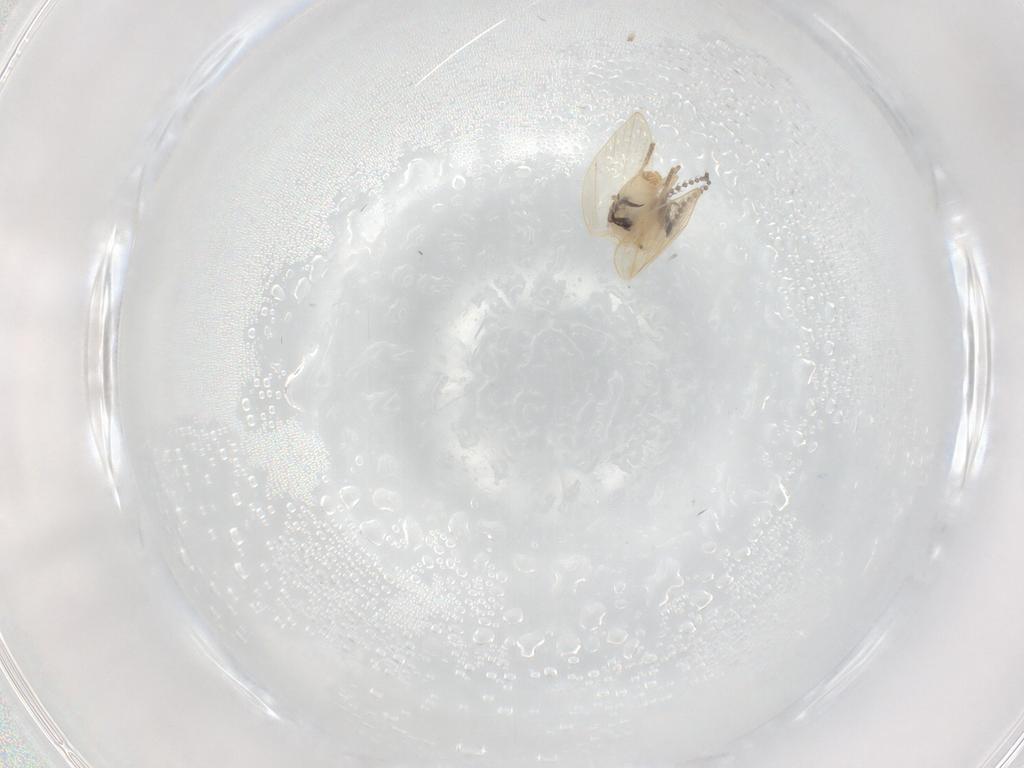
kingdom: Animalia
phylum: Arthropoda
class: Insecta
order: Diptera
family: Psychodidae
